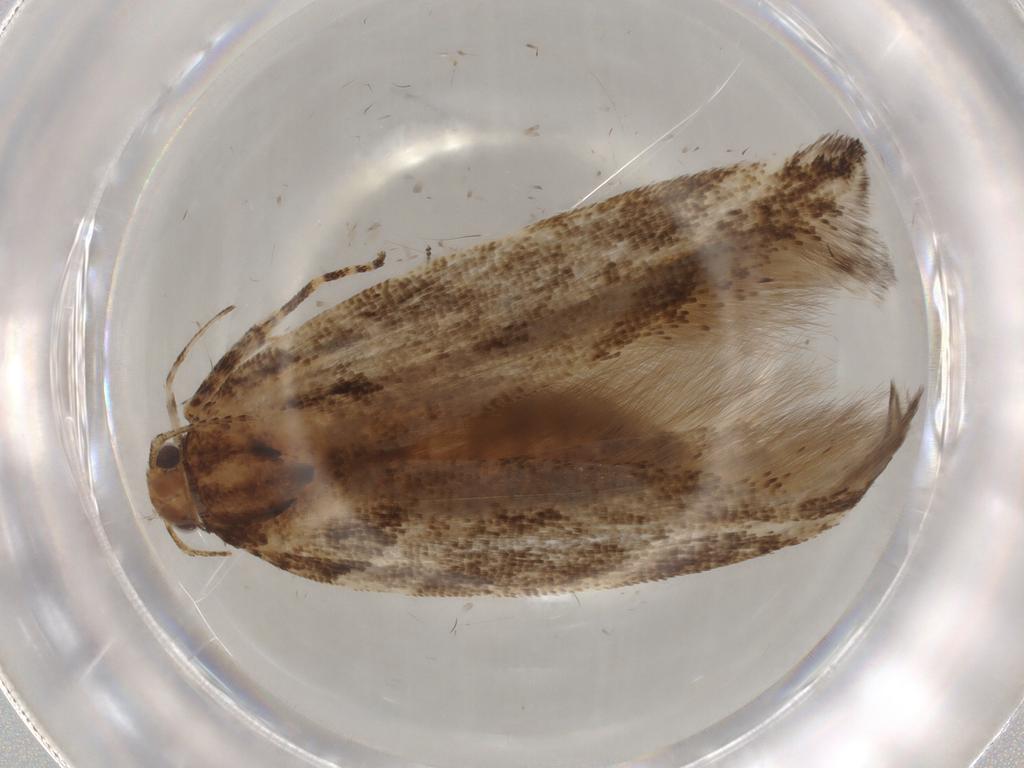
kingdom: Animalia
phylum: Arthropoda
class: Insecta
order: Lepidoptera
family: Gelechiidae
